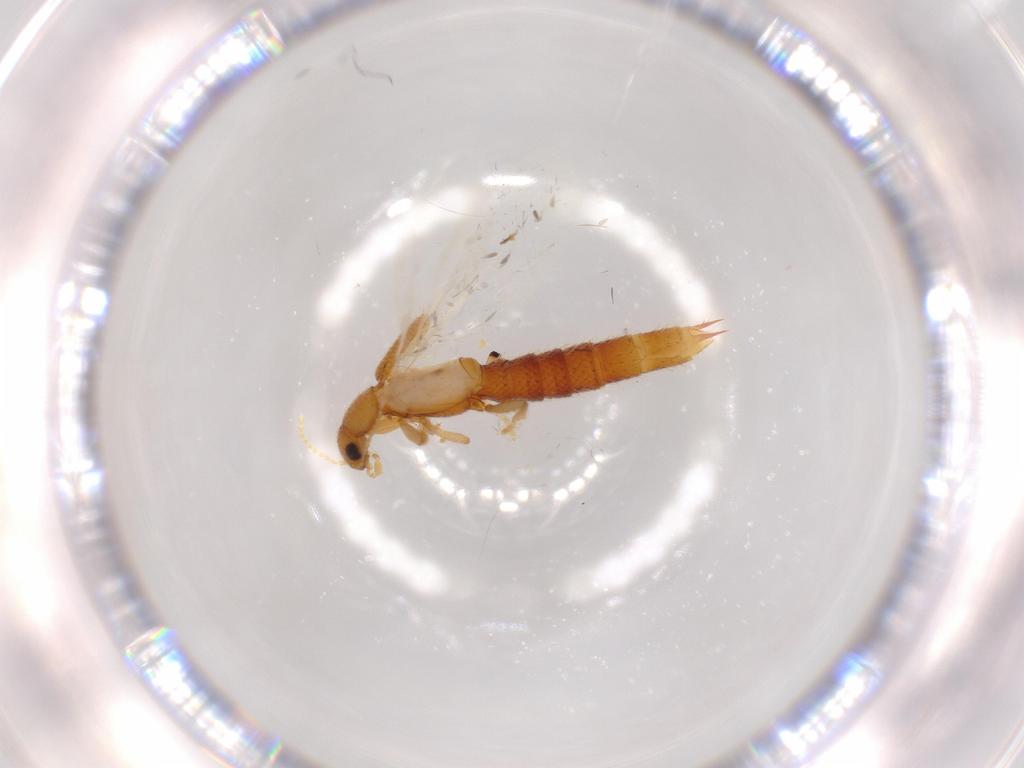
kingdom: Animalia
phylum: Arthropoda
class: Insecta
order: Coleoptera
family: Staphylinidae
